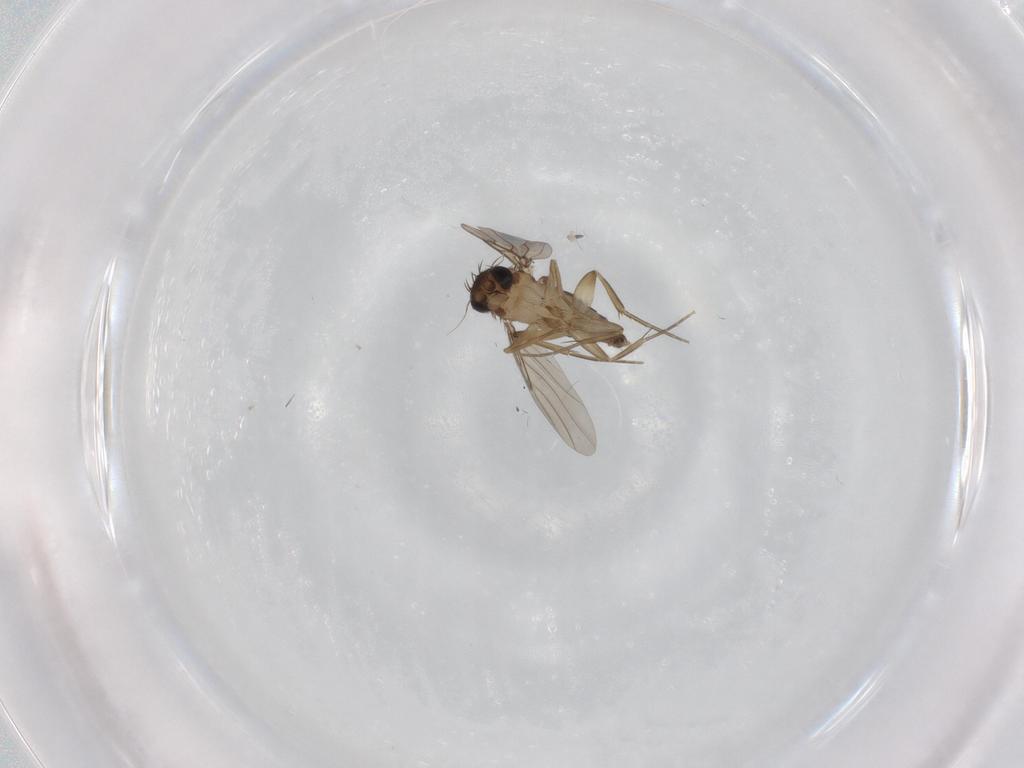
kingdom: Animalia
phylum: Arthropoda
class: Insecta
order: Diptera
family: Phoridae
